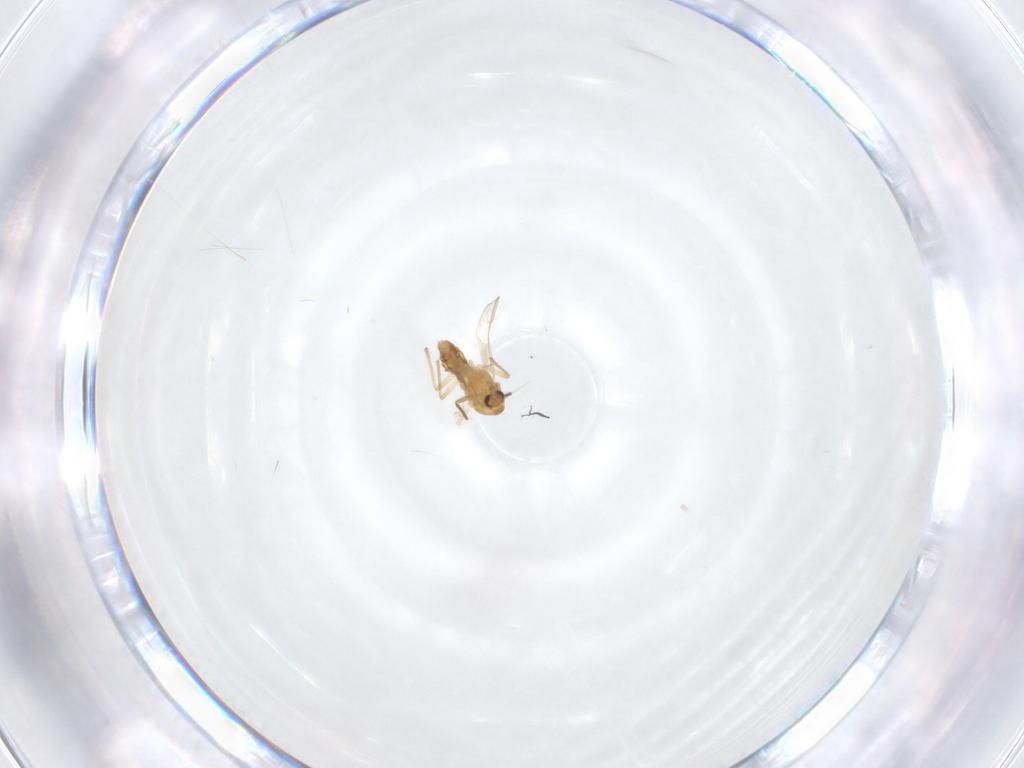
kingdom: Animalia
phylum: Arthropoda
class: Insecta
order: Diptera
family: Chironomidae
